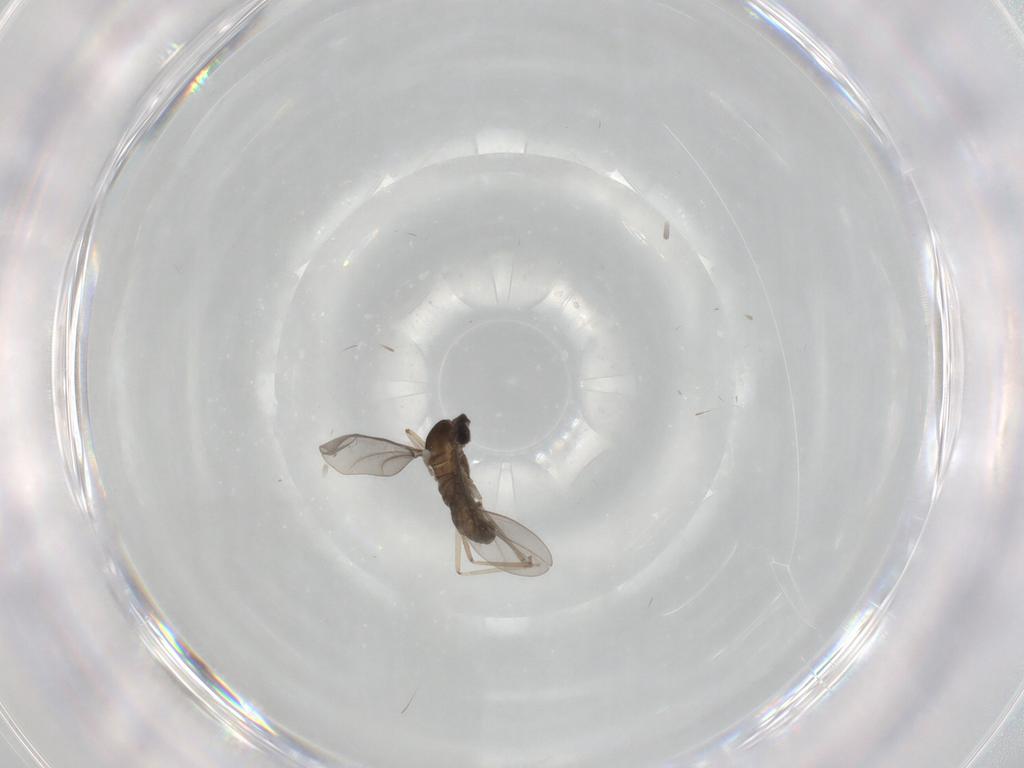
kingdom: Animalia
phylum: Arthropoda
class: Insecta
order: Diptera
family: Cecidomyiidae
